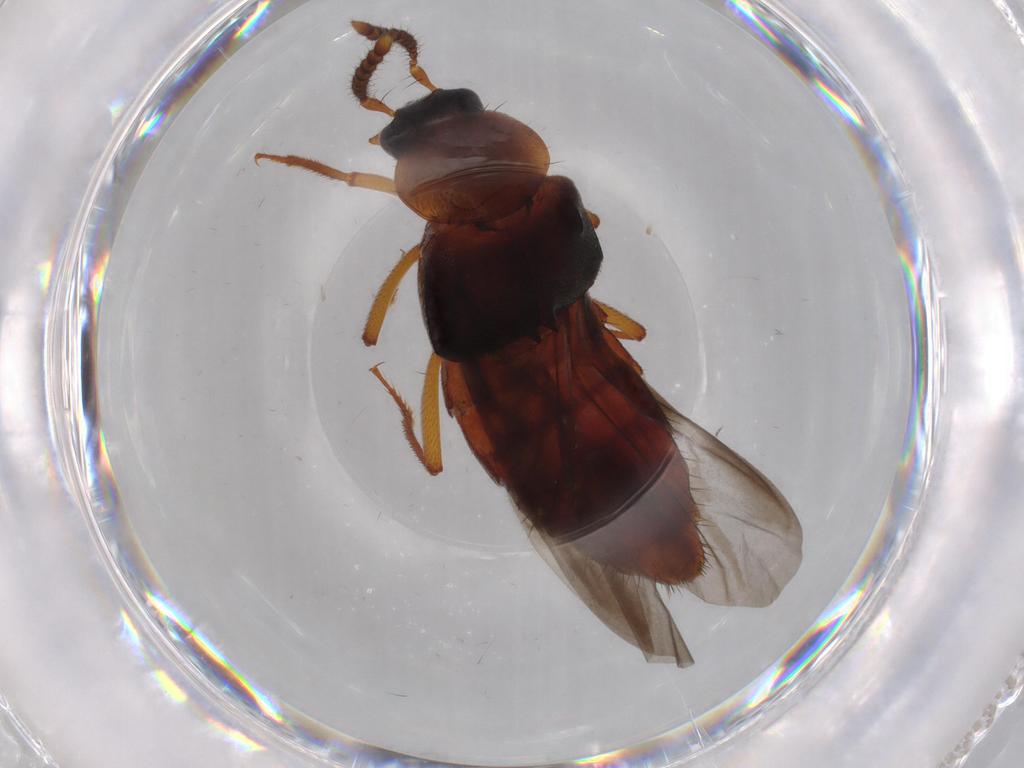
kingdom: Animalia
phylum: Arthropoda
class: Insecta
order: Coleoptera
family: Staphylinidae
